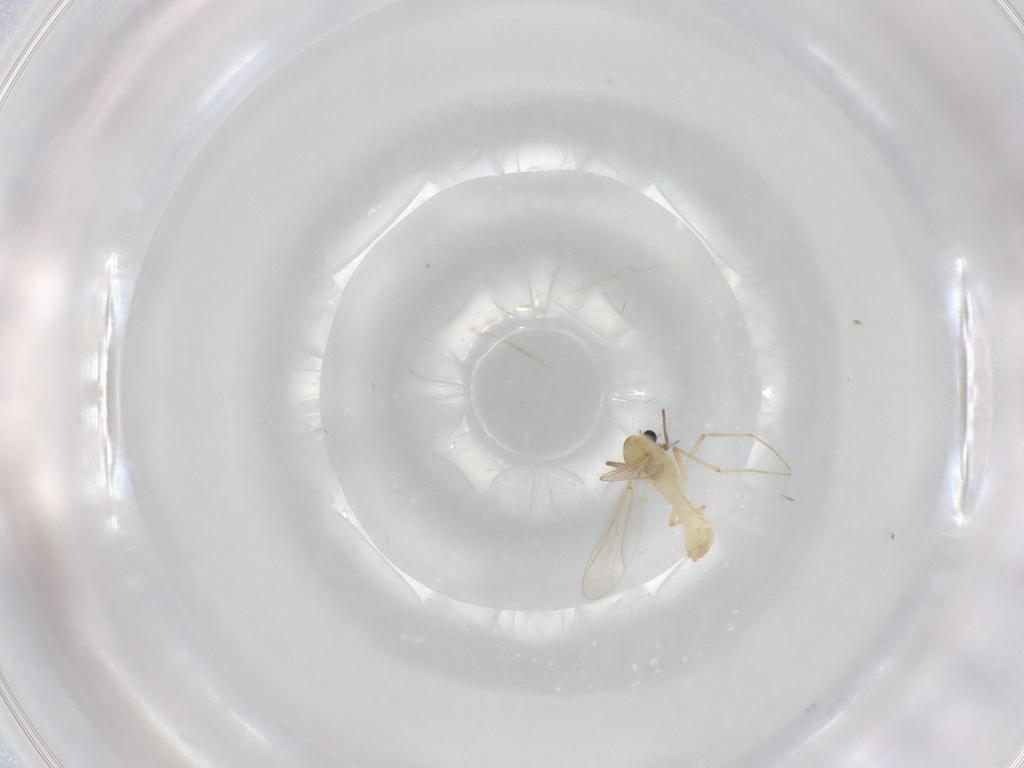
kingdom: Animalia
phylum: Arthropoda
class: Insecta
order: Diptera
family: Chironomidae
